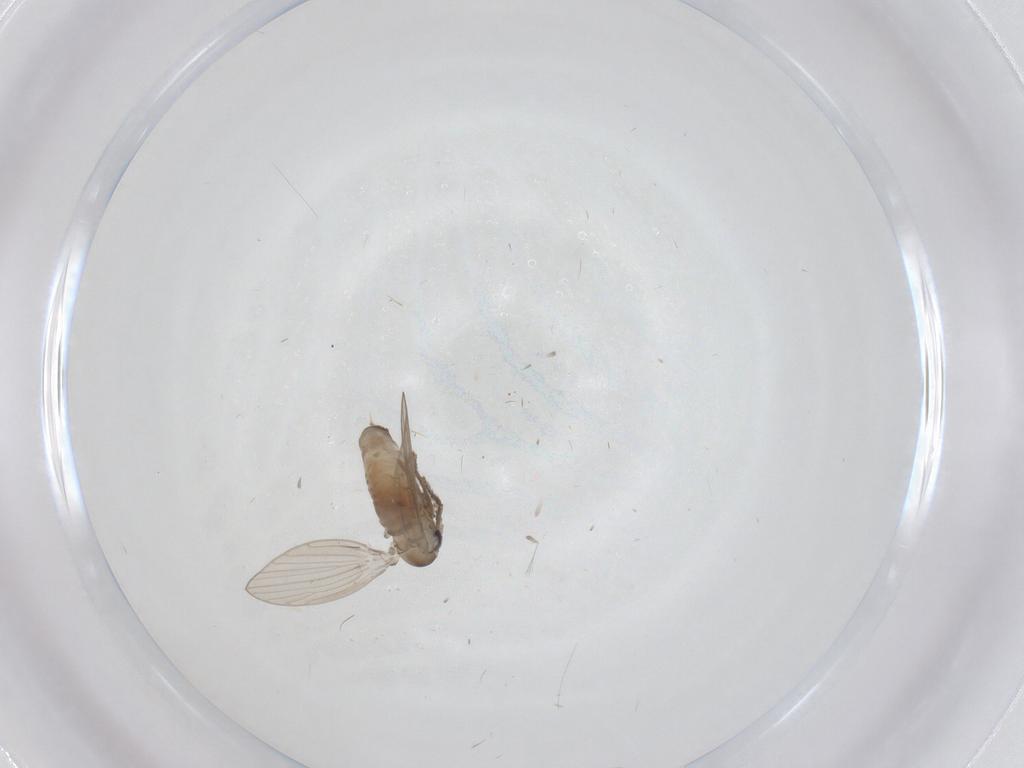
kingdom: Animalia
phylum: Arthropoda
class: Insecta
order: Diptera
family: Psychodidae
